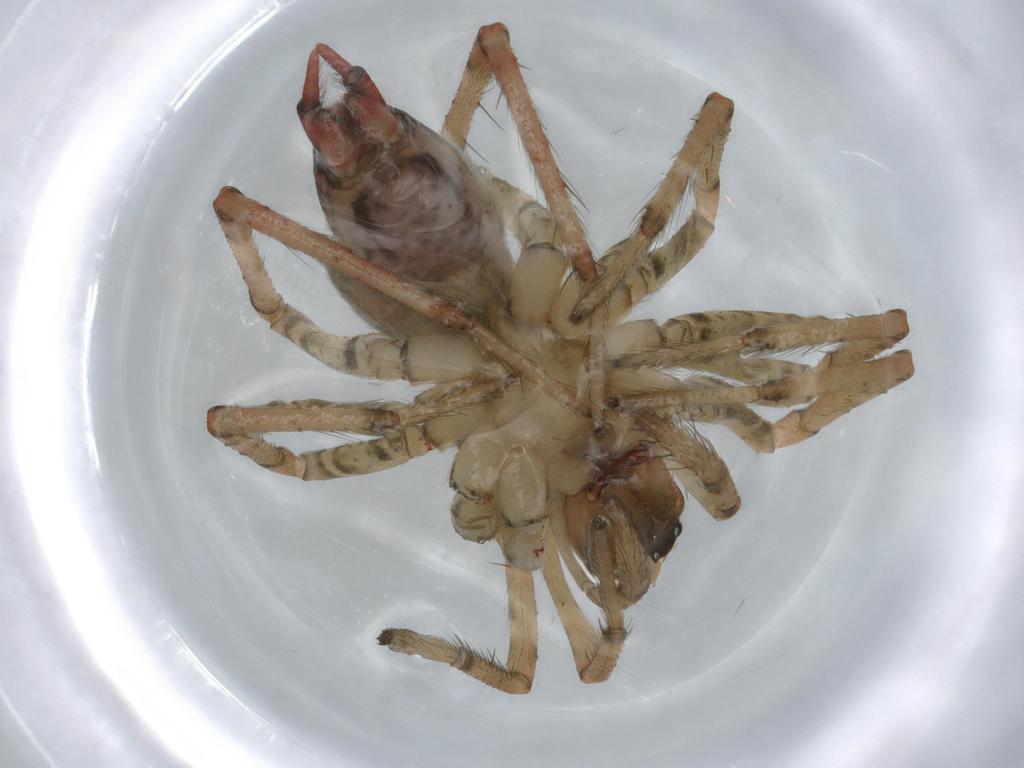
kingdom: Animalia
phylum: Arthropoda
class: Arachnida
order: Araneae
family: Agelenidae
